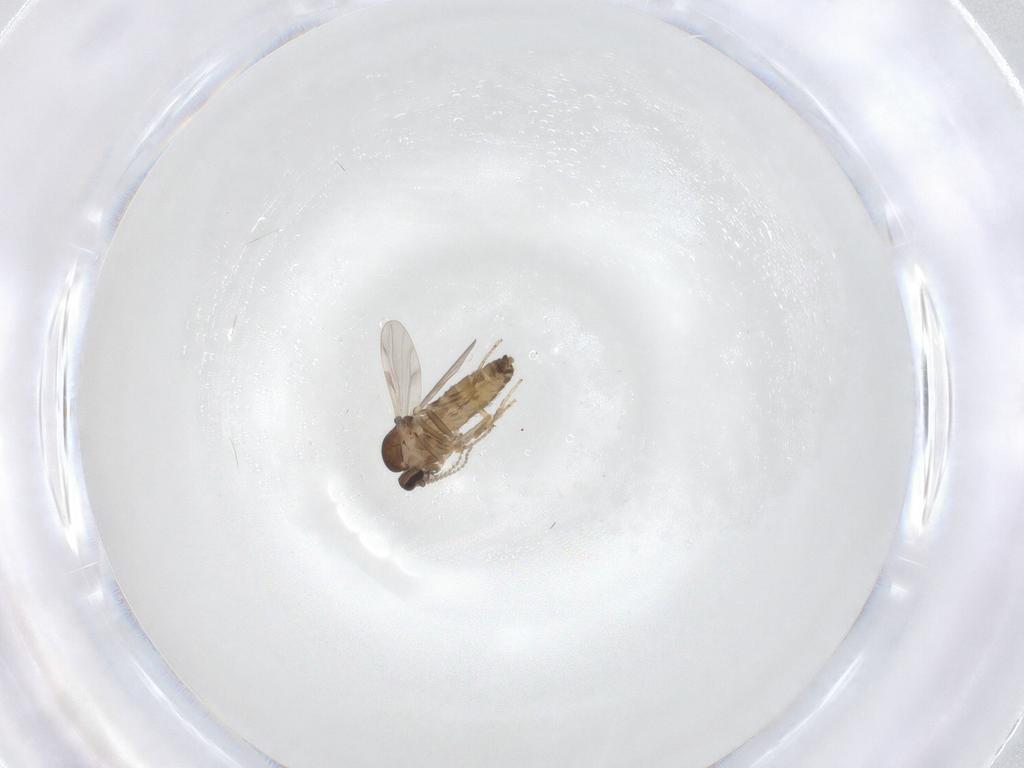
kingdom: Animalia
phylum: Arthropoda
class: Insecta
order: Diptera
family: Ceratopogonidae
